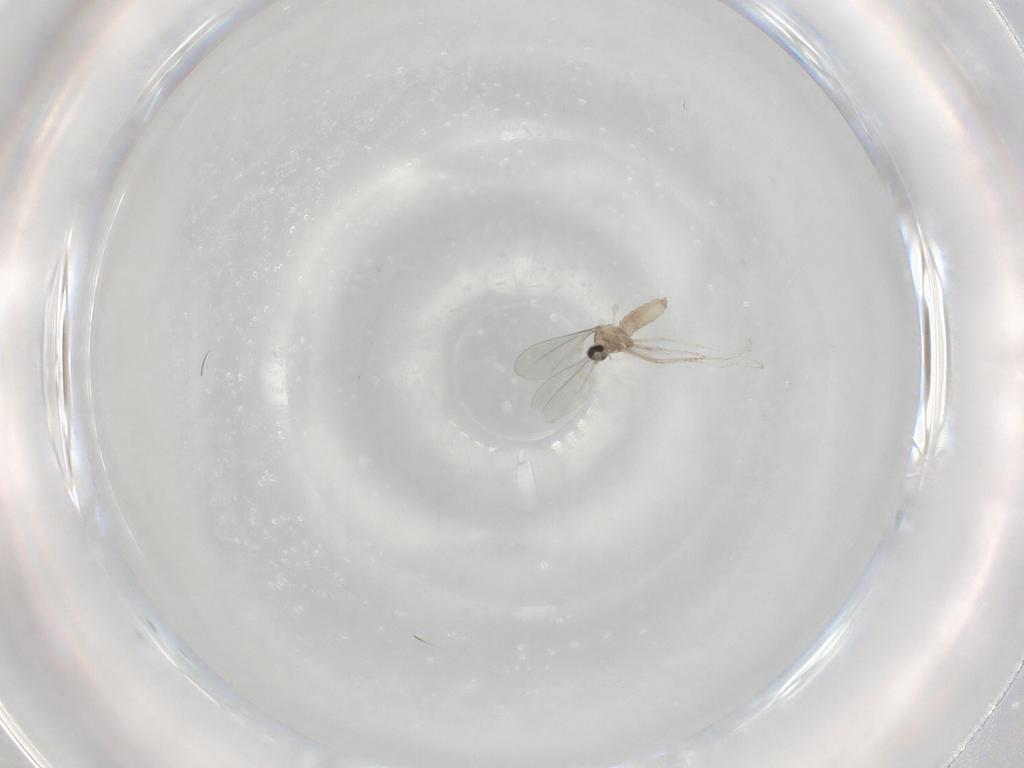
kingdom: Animalia
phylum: Arthropoda
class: Insecta
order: Diptera
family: Cecidomyiidae
